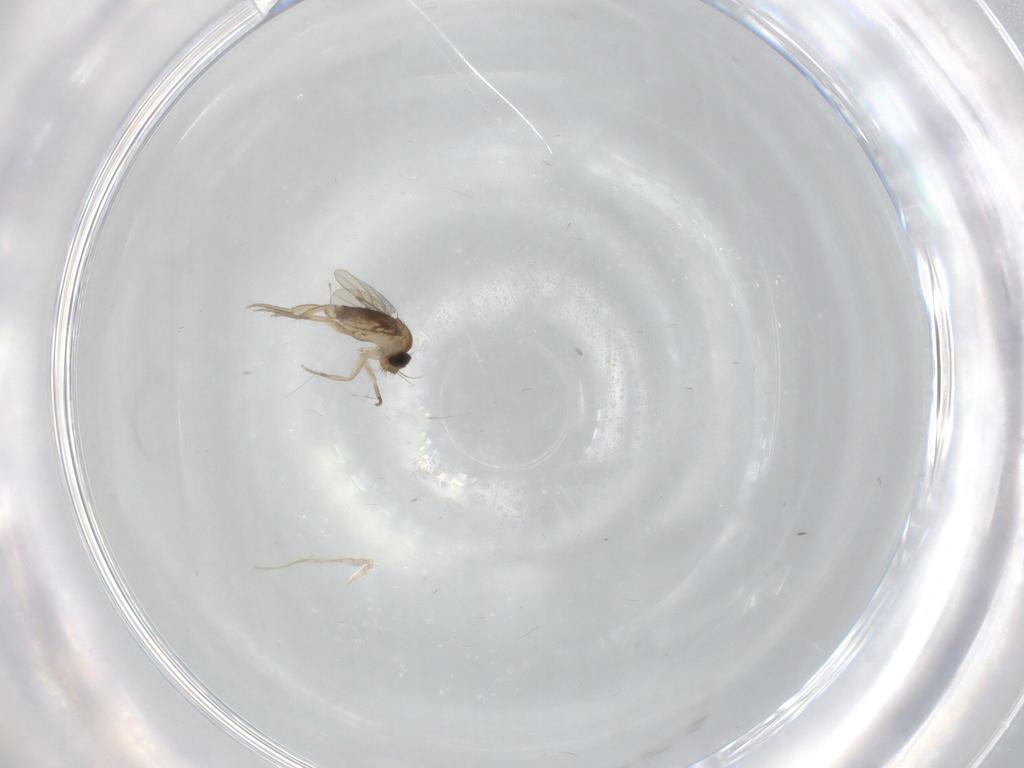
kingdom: Animalia
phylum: Arthropoda
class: Insecta
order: Diptera
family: Phoridae
